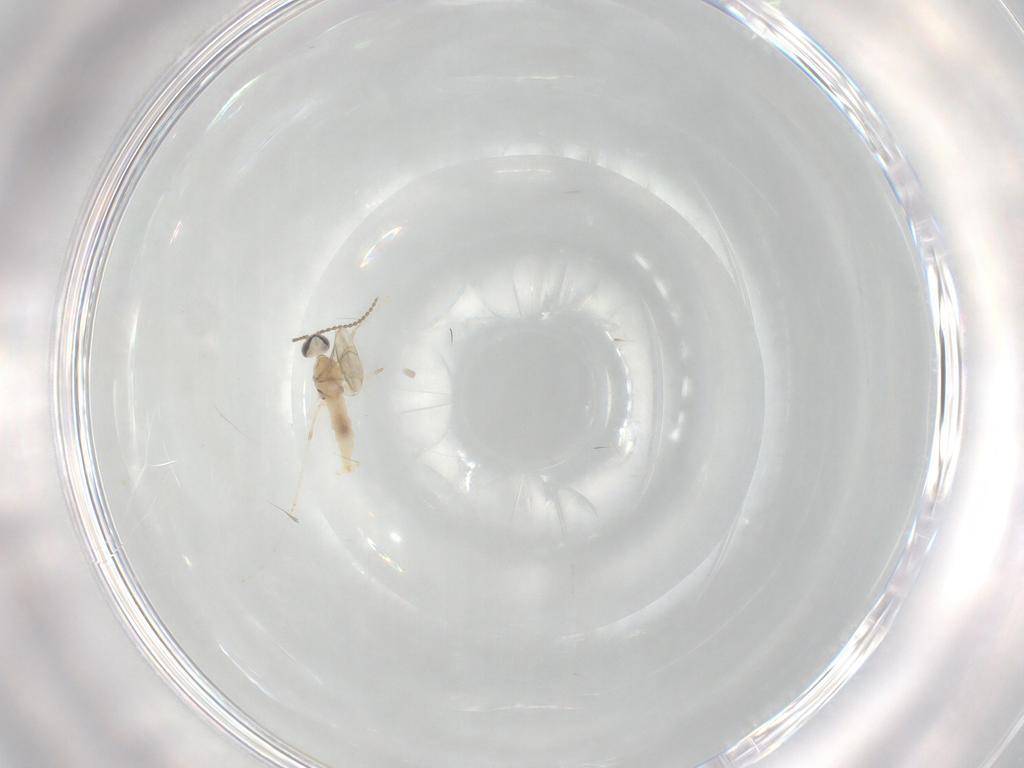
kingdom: Animalia
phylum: Arthropoda
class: Insecta
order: Diptera
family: Cecidomyiidae
